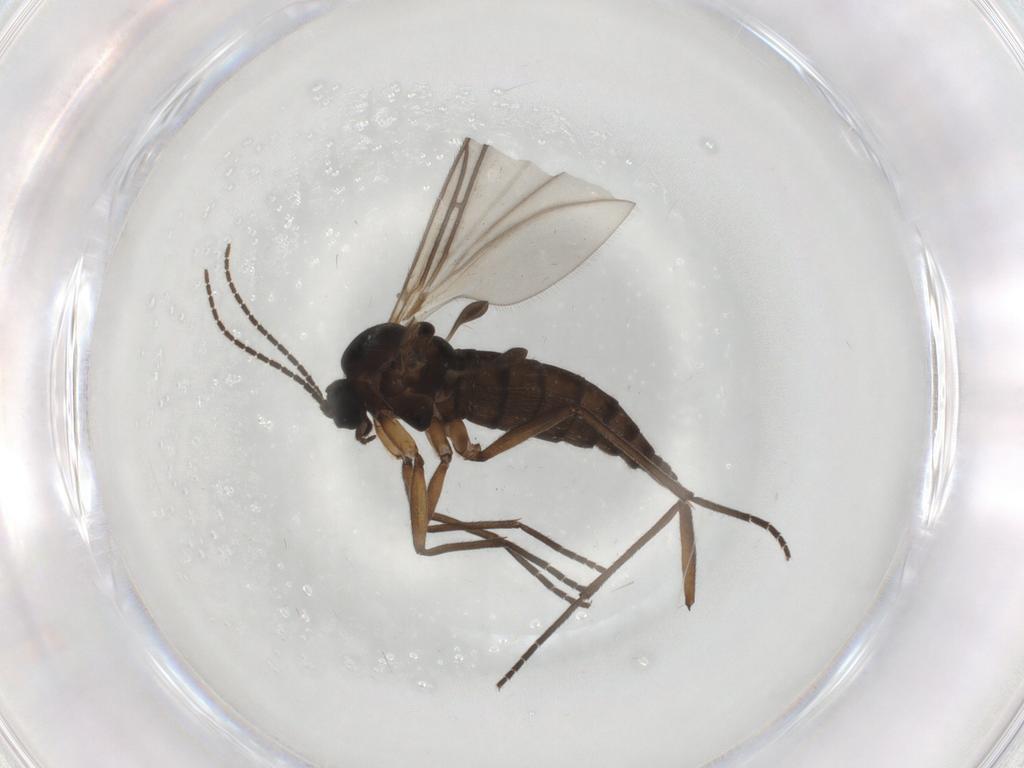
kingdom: Animalia
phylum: Arthropoda
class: Insecta
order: Diptera
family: Sciaridae
